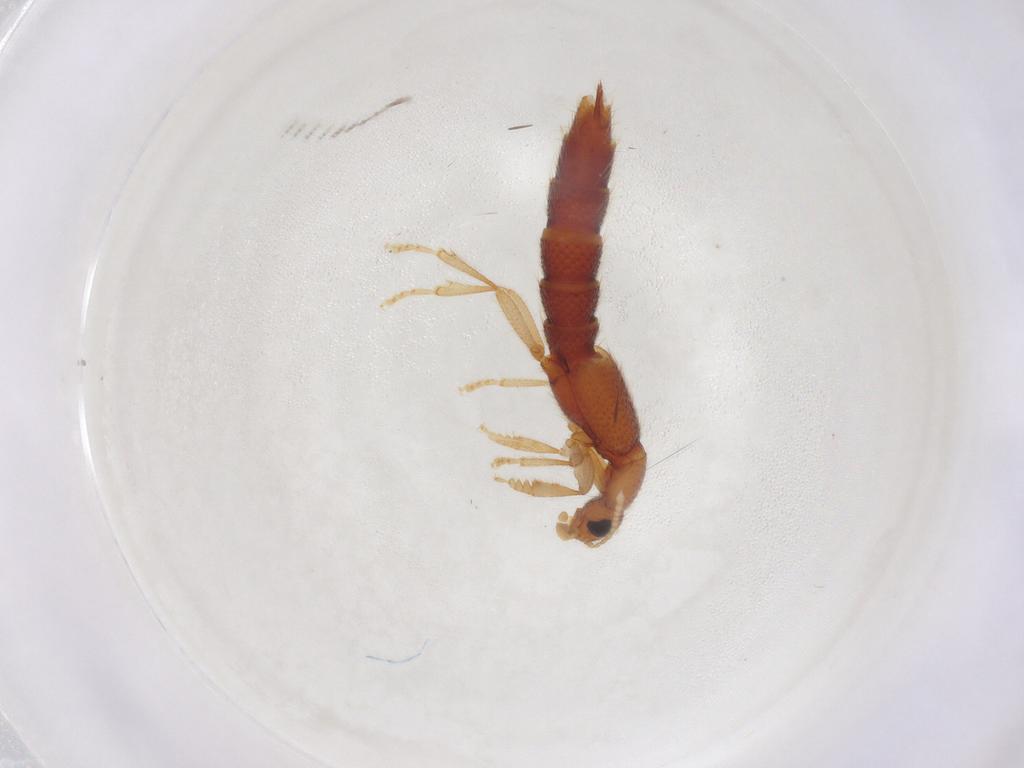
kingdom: Animalia
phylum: Arthropoda
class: Insecta
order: Coleoptera
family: Staphylinidae
